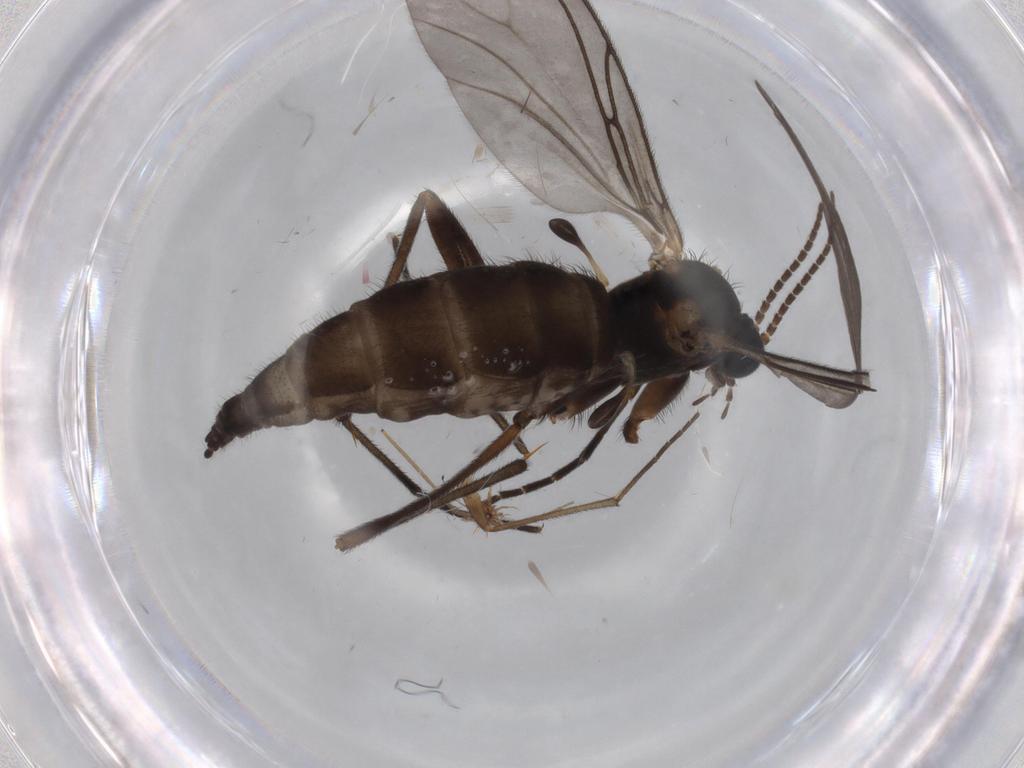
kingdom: Animalia
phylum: Arthropoda
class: Insecta
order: Diptera
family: Sciaridae
